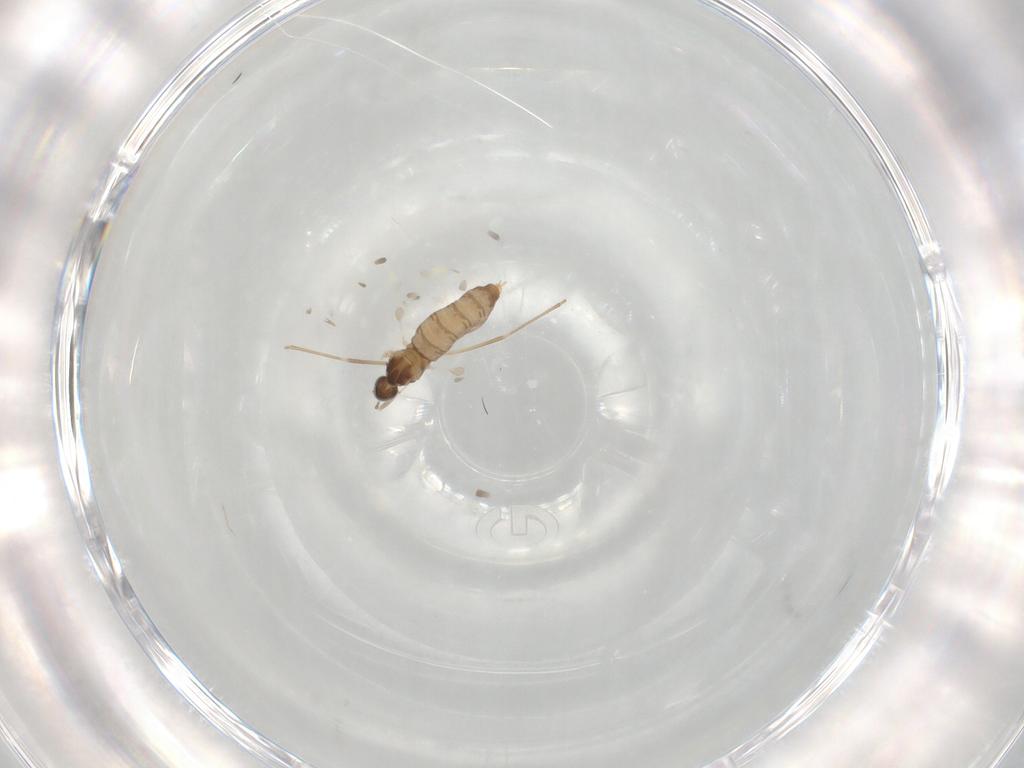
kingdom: Animalia
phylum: Arthropoda
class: Insecta
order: Diptera
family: Cecidomyiidae
